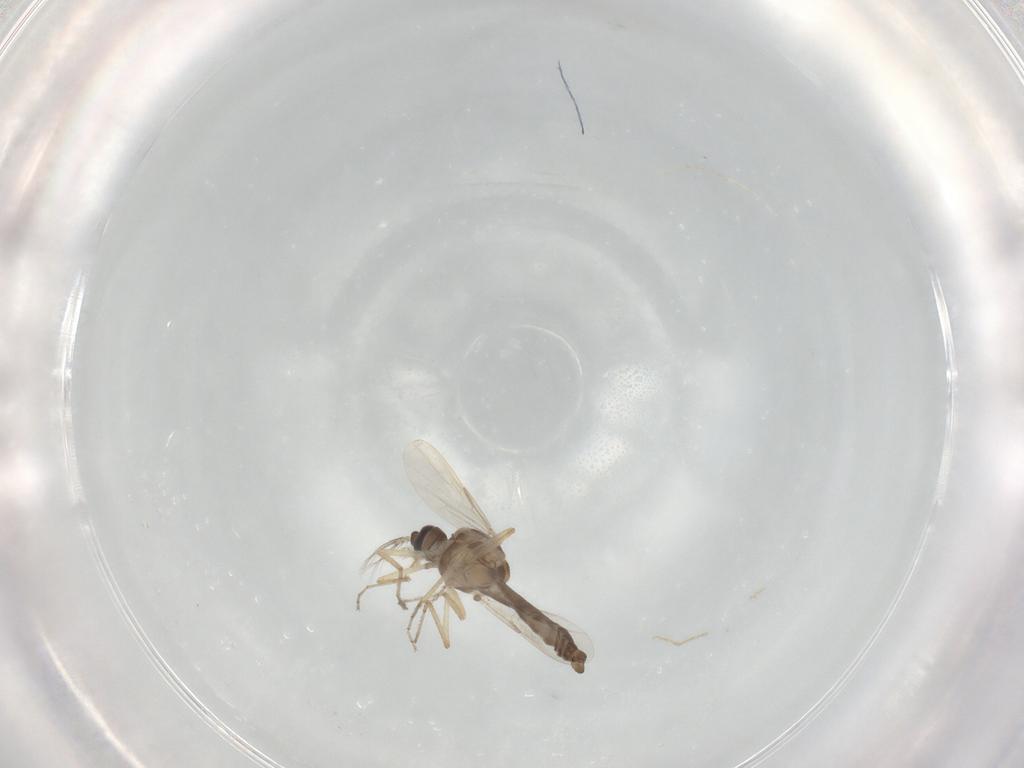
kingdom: Animalia
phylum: Arthropoda
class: Insecta
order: Diptera
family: Ceratopogonidae
